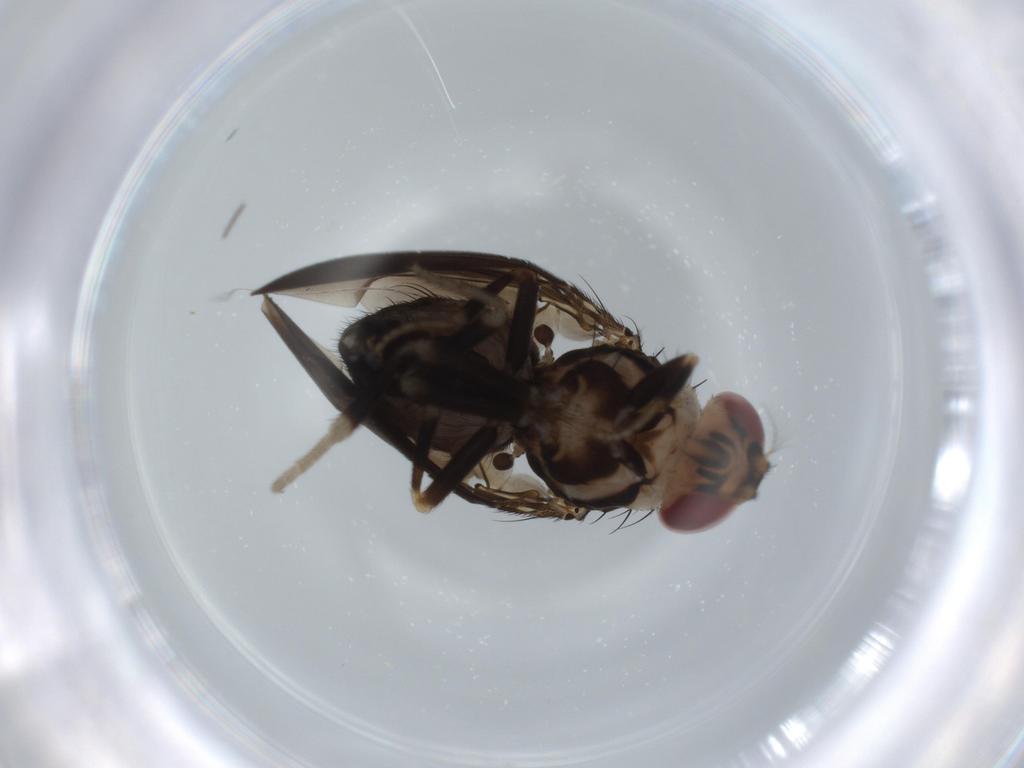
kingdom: Animalia
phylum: Arthropoda
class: Insecta
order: Diptera
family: Cecidomyiidae
